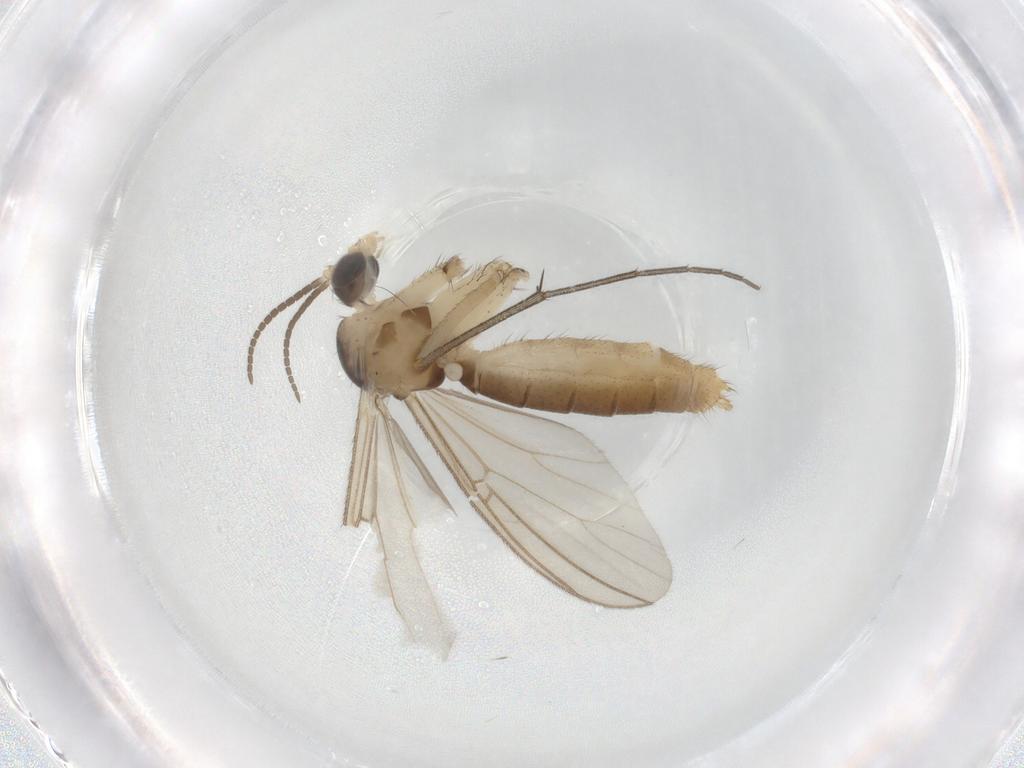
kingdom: Animalia
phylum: Arthropoda
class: Insecta
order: Diptera
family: Mycetophilidae
